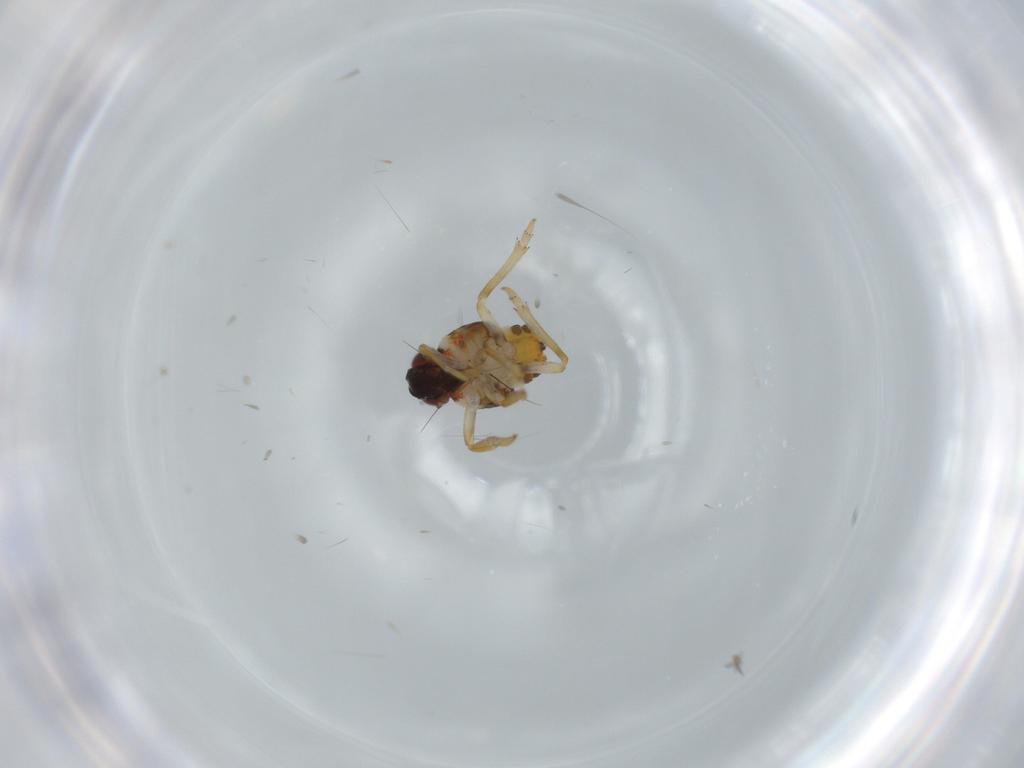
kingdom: Animalia
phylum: Arthropoda
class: Insecta
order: Hemiptera
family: Issidae
